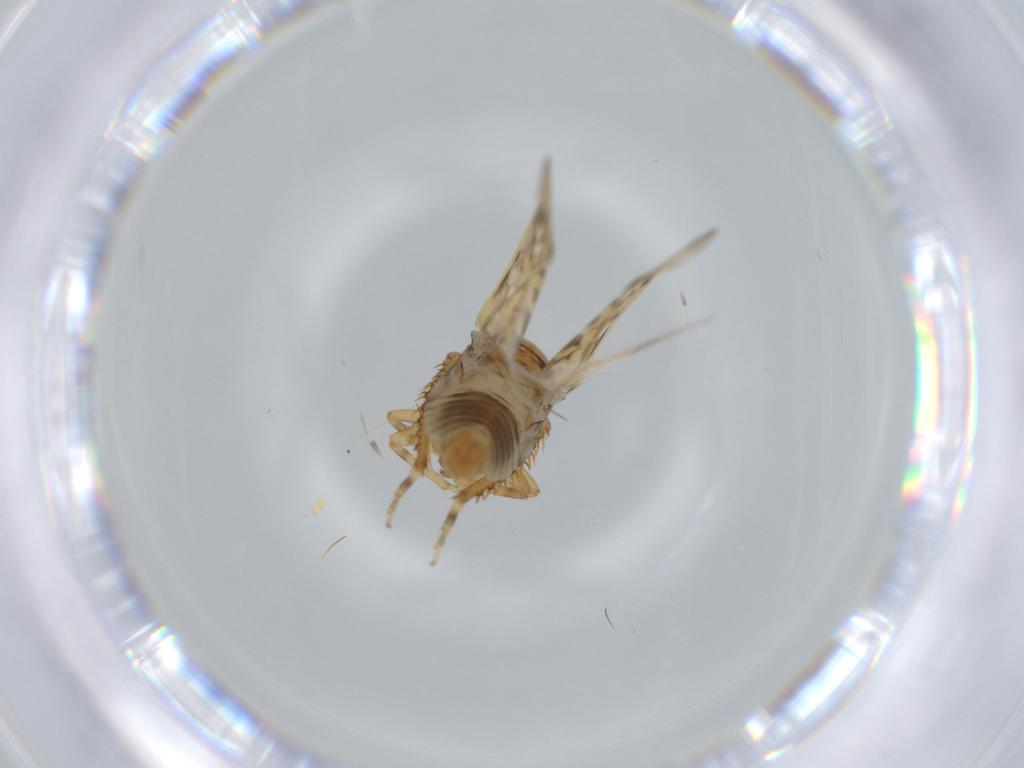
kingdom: Animalia
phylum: Arthropoda
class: Insecta
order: Hemiptera
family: Cicadellidae
